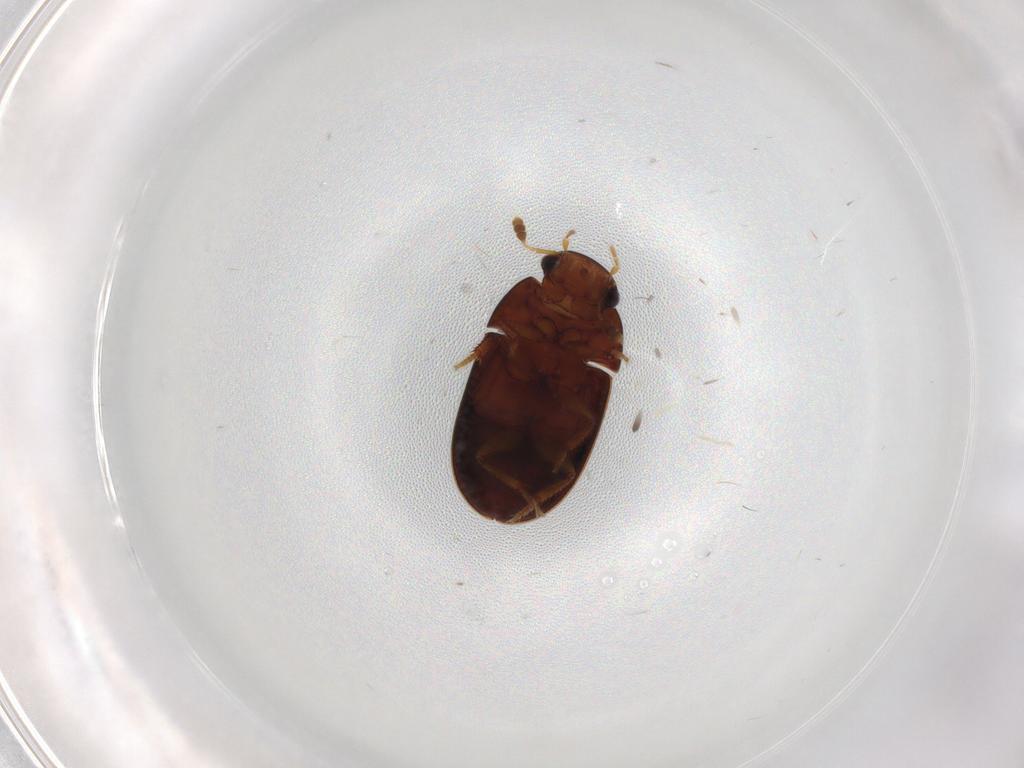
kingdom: Animalia
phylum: Arthropoda
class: Insecta
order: Coleoptera
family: Hydrophilidae
